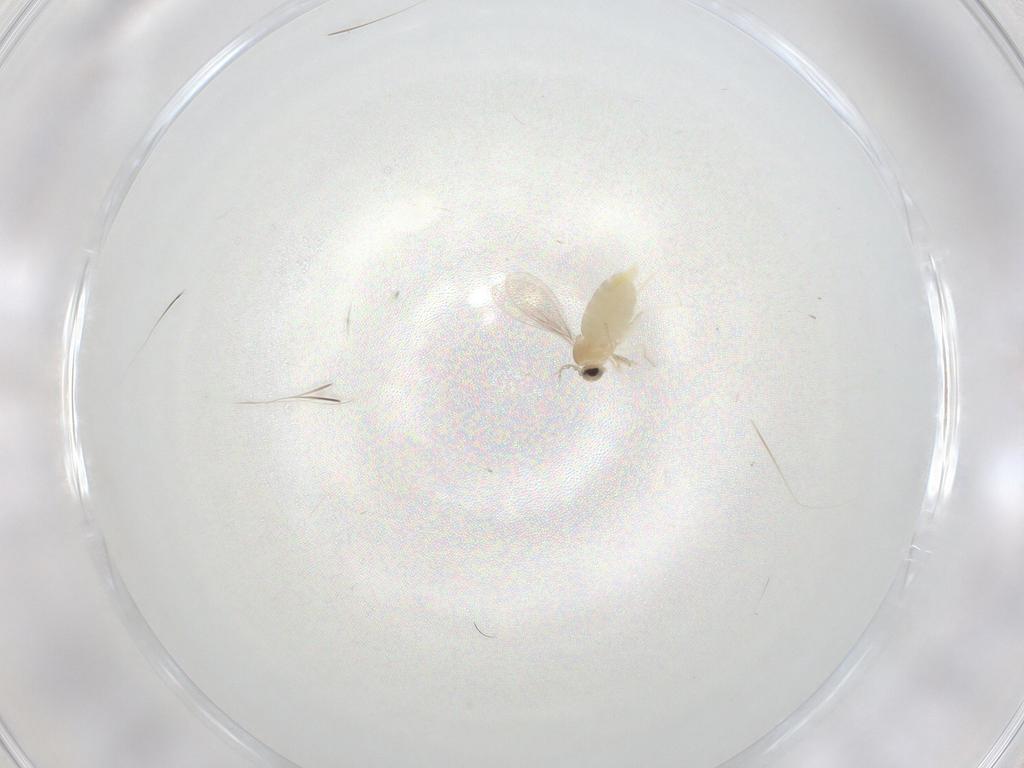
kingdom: Animalia
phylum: Arthropoda
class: Insecta
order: Diptera
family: Cecidomyiidae
